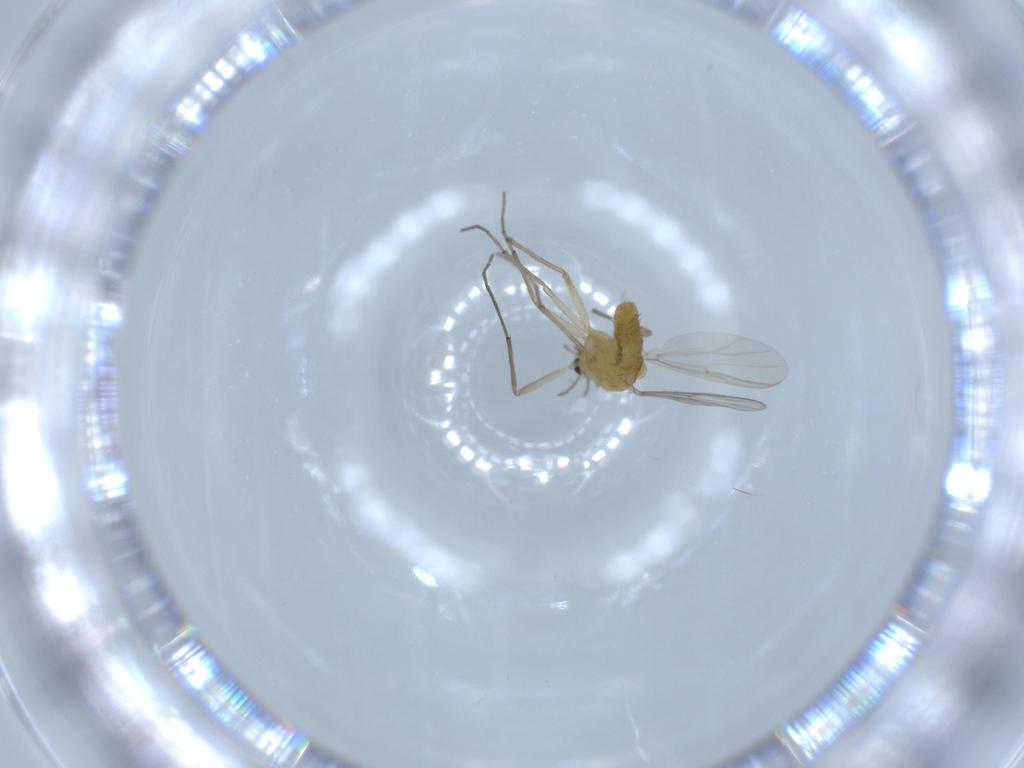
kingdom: Animalia
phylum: Arthropoda
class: Insecta
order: Diptera
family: Chironomidae
